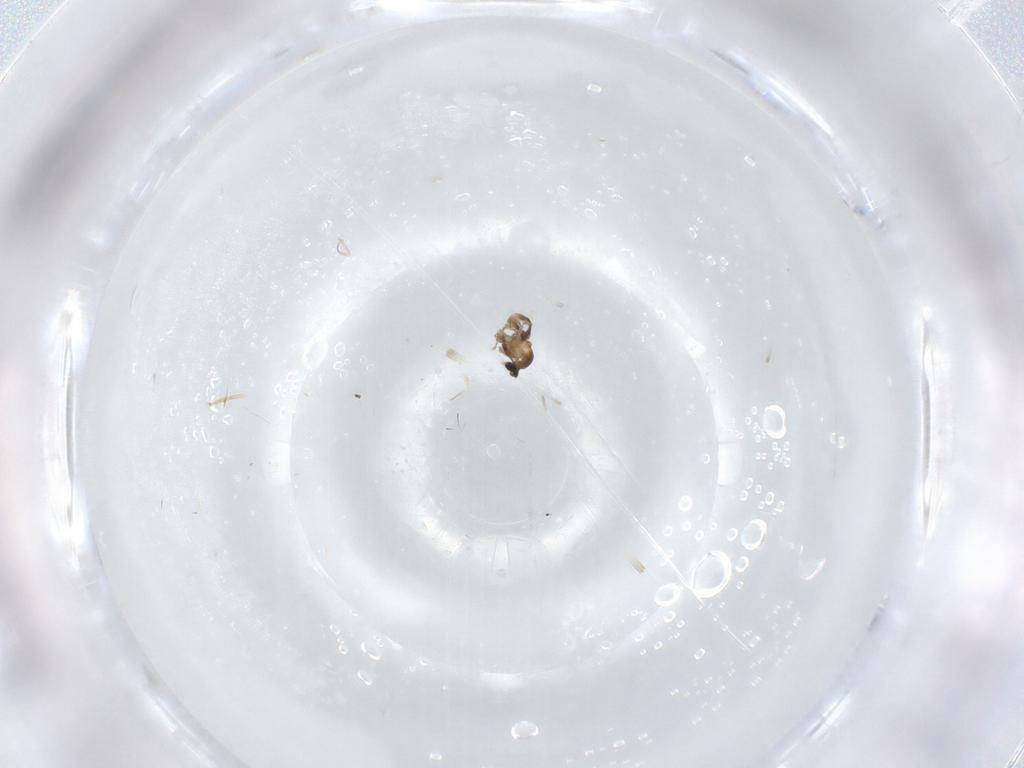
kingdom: Animalia
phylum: Arthropoda
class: Insecta
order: Diptera
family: Cecidomyiidae
